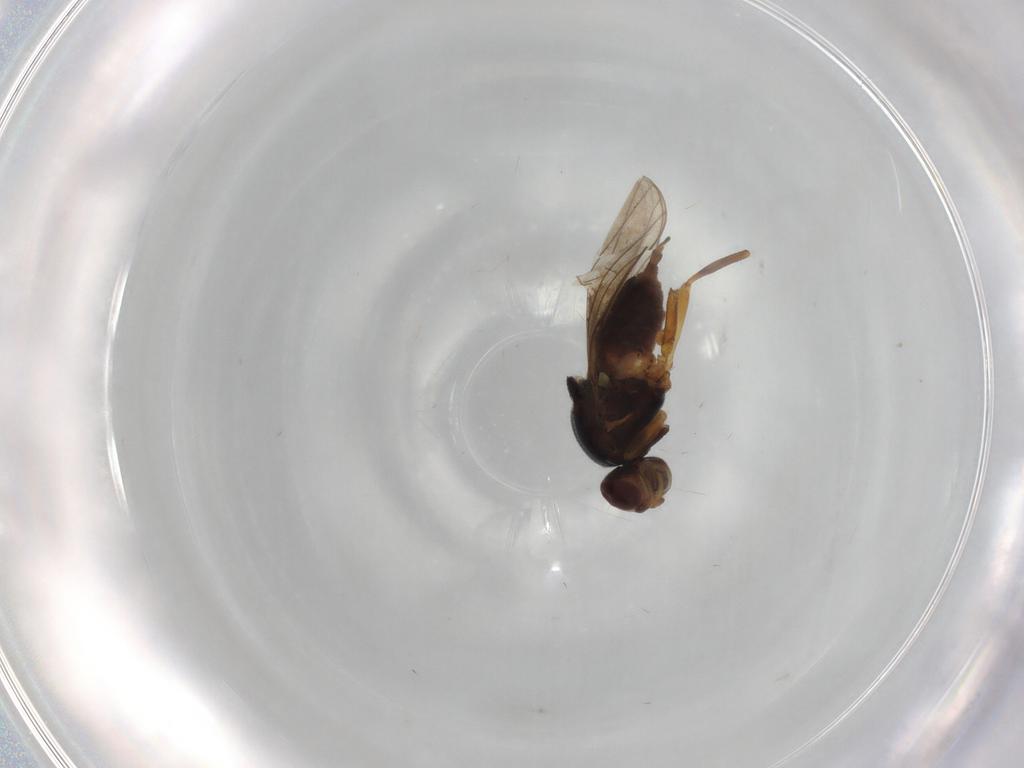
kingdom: Animalia
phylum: Arthropoda
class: Insecta
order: Diptera
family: Chloropidae
